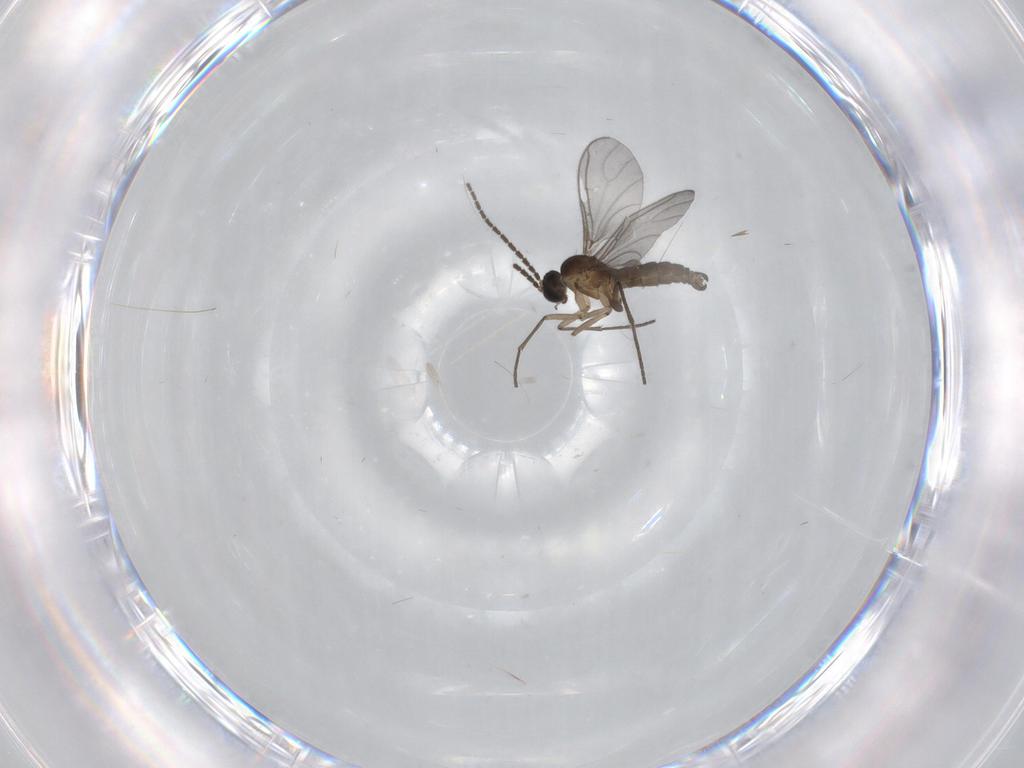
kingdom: Animalia
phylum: Arthropoda
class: Insecta
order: Diptera
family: Sciaridae
